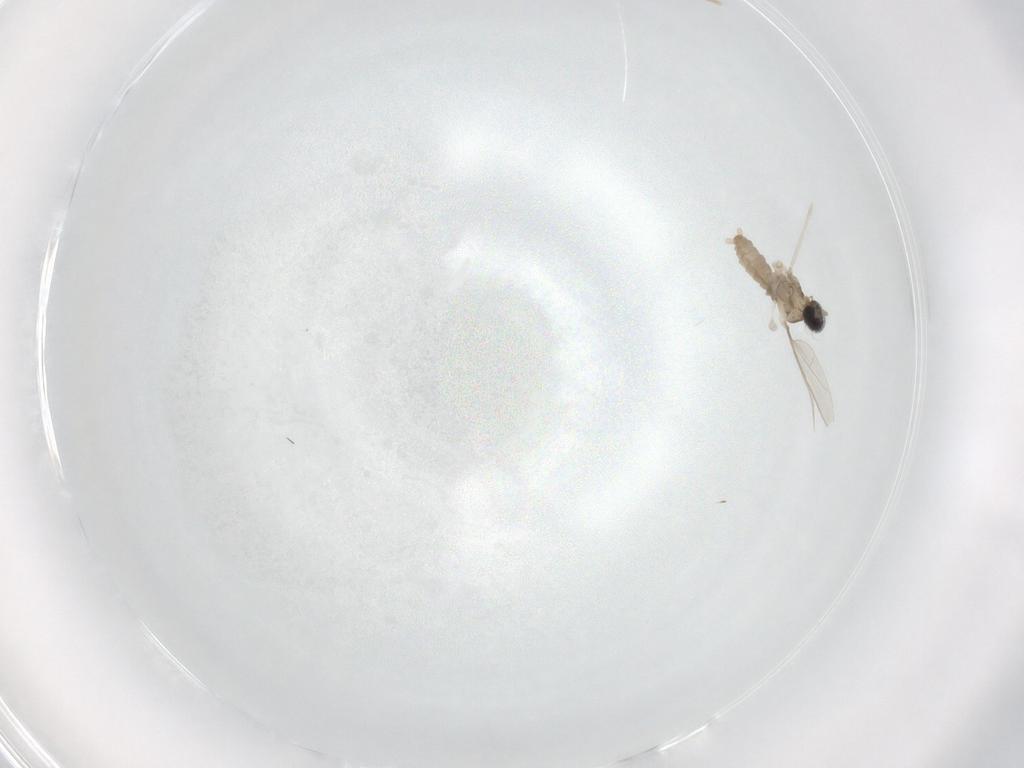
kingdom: Animalia
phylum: Arthropoda
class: Insecta
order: Diptera
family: Cecidomyiidae
